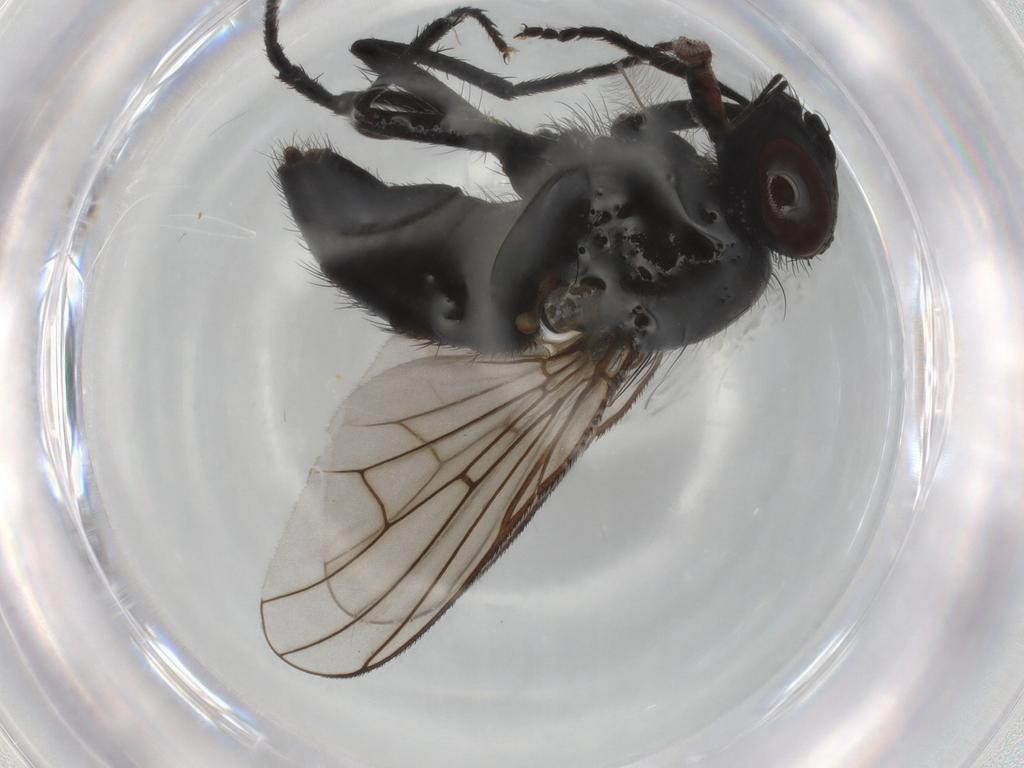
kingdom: Animalia
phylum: Arthropoda
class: Insecta
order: Diptera
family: Muscidae
